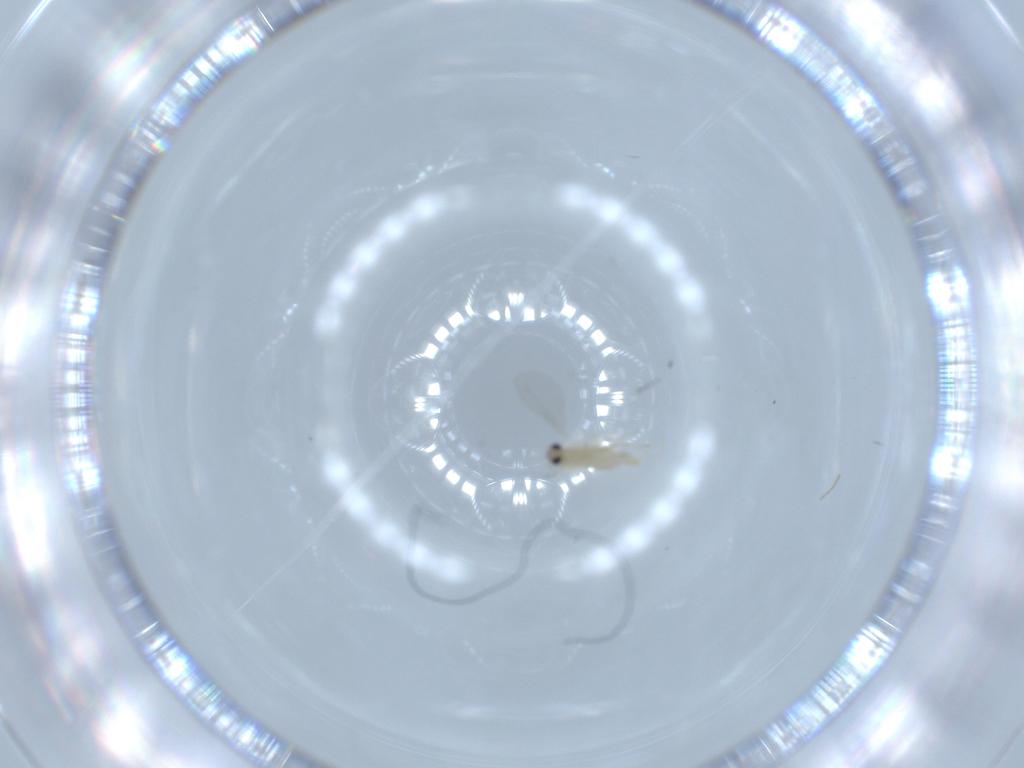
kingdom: Animalia
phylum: Arthropoda
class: Insecta
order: Diptera
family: Cecidomyiidae
